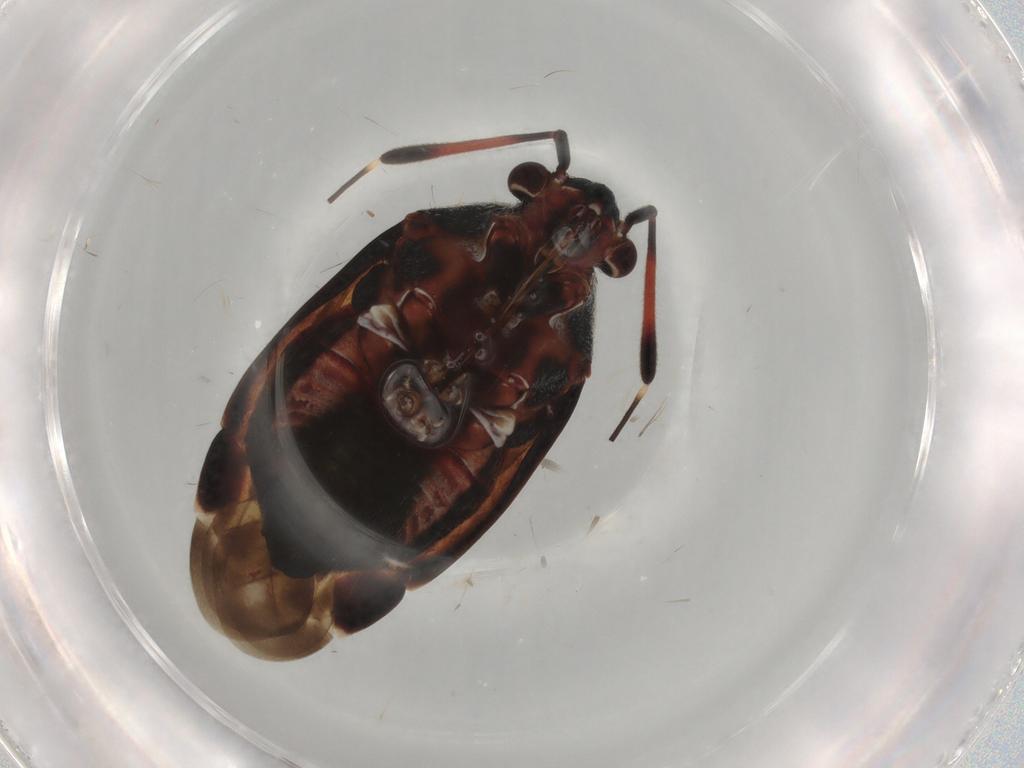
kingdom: Animalia
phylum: Arthropoda
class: Insecta
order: Hemiptera
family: Miridae
